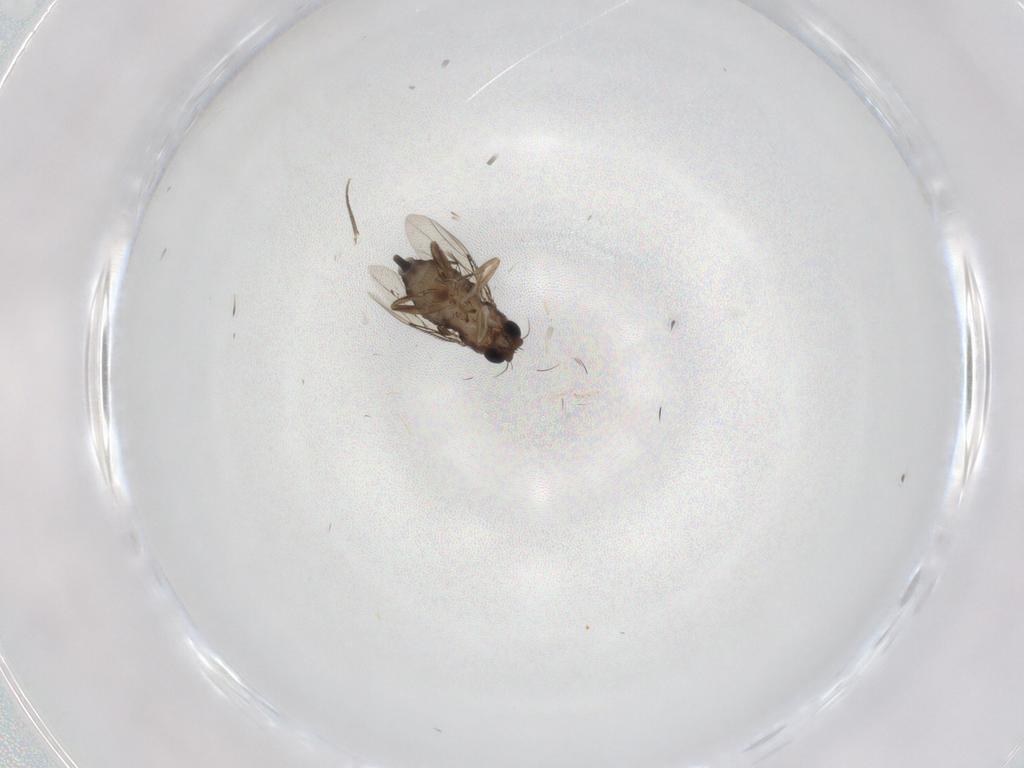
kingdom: Animalia
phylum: Arthropoda
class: Insecta
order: Diptera
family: Phoridae
